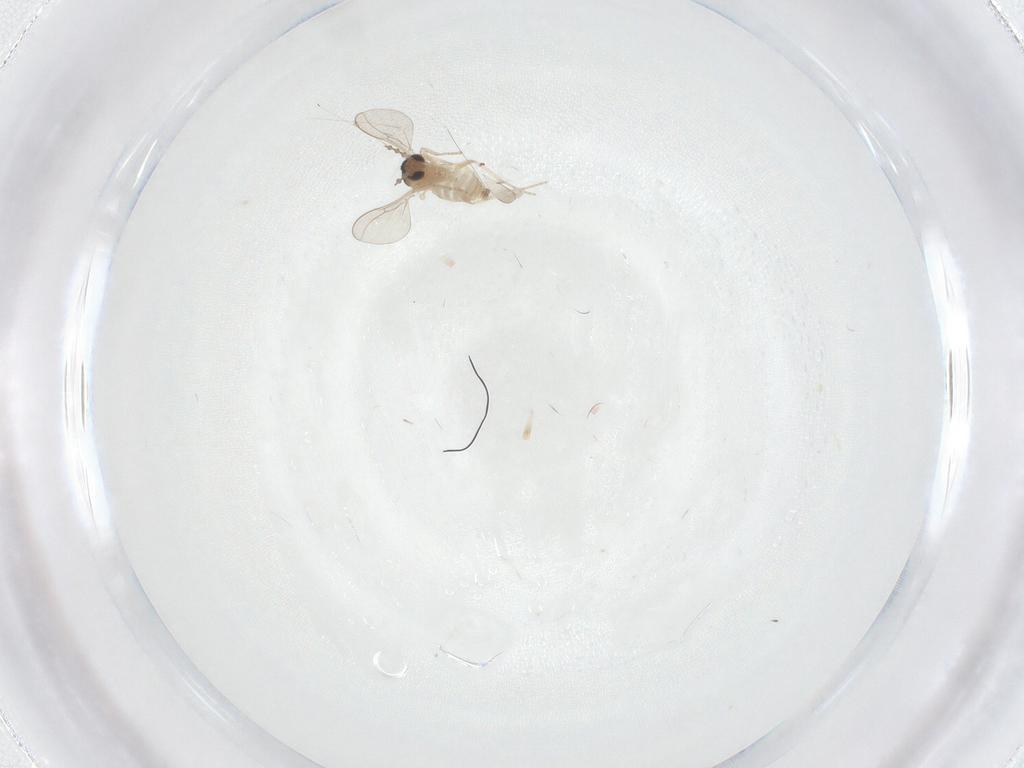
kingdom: Animalia
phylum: Arthropoda
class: Insecta
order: Diptera
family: Cecidomyiidae
